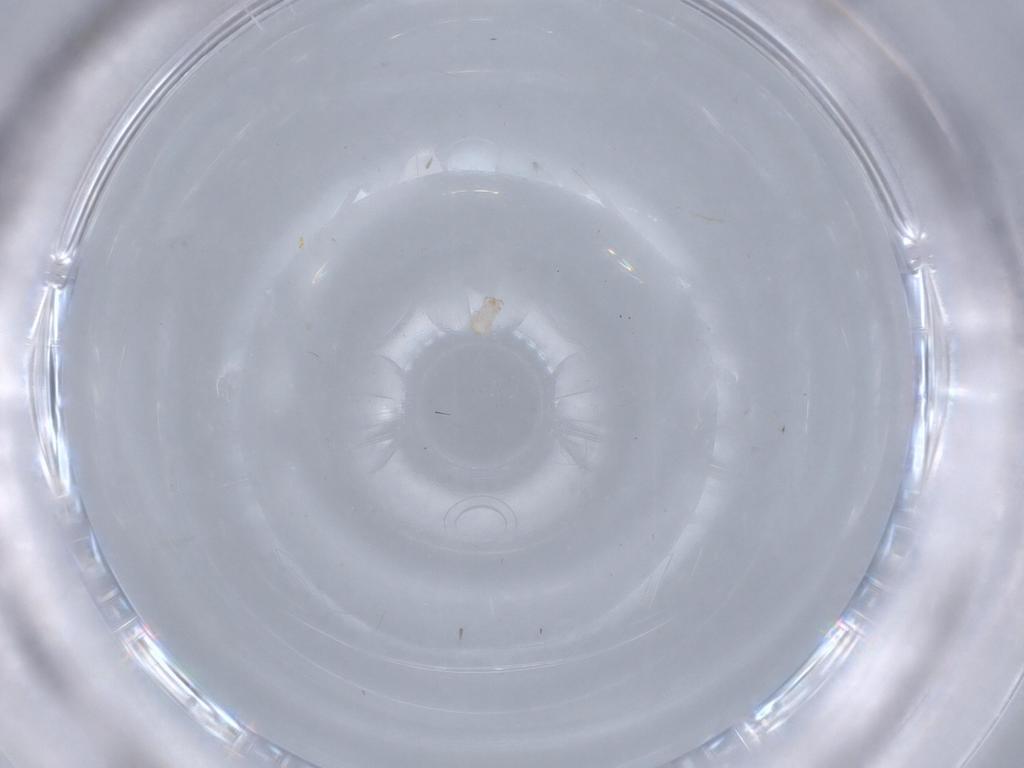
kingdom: Animalia
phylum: Arthropoda
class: Arachnida
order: Mesostigmata
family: Digamasellidae
